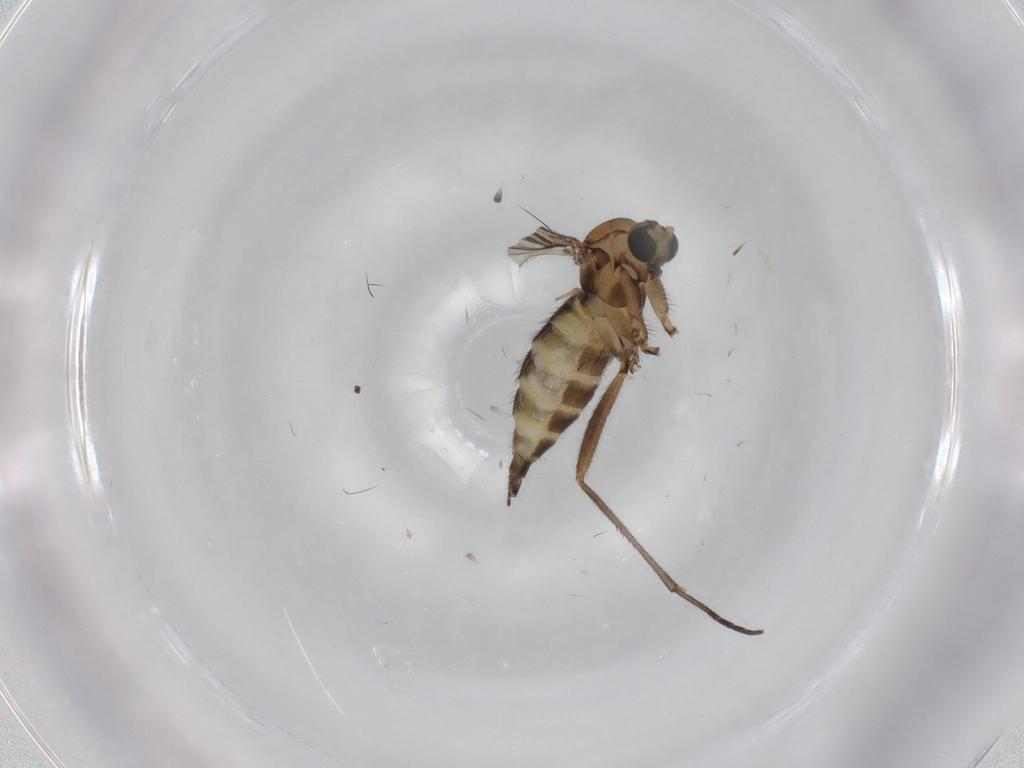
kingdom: Animalia
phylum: Arthropoda
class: Insecta
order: Diptera
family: Sciaridae
